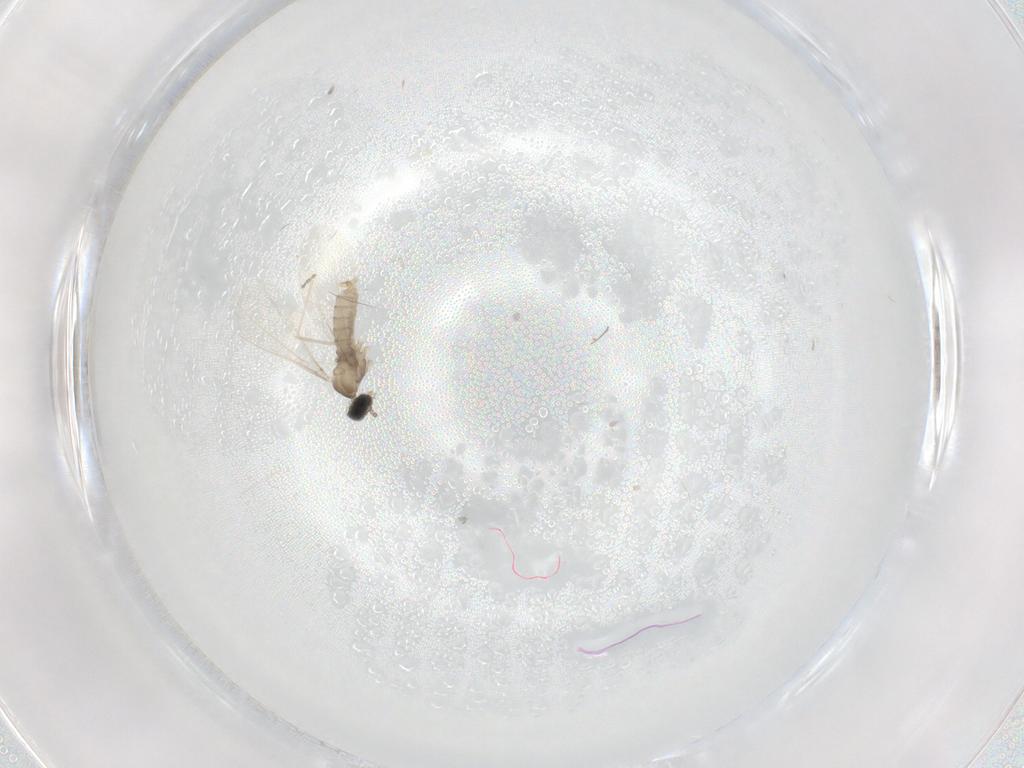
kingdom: Animalia
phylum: Arthropoda
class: Insecta
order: Diptera
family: Cecidomyiidae
